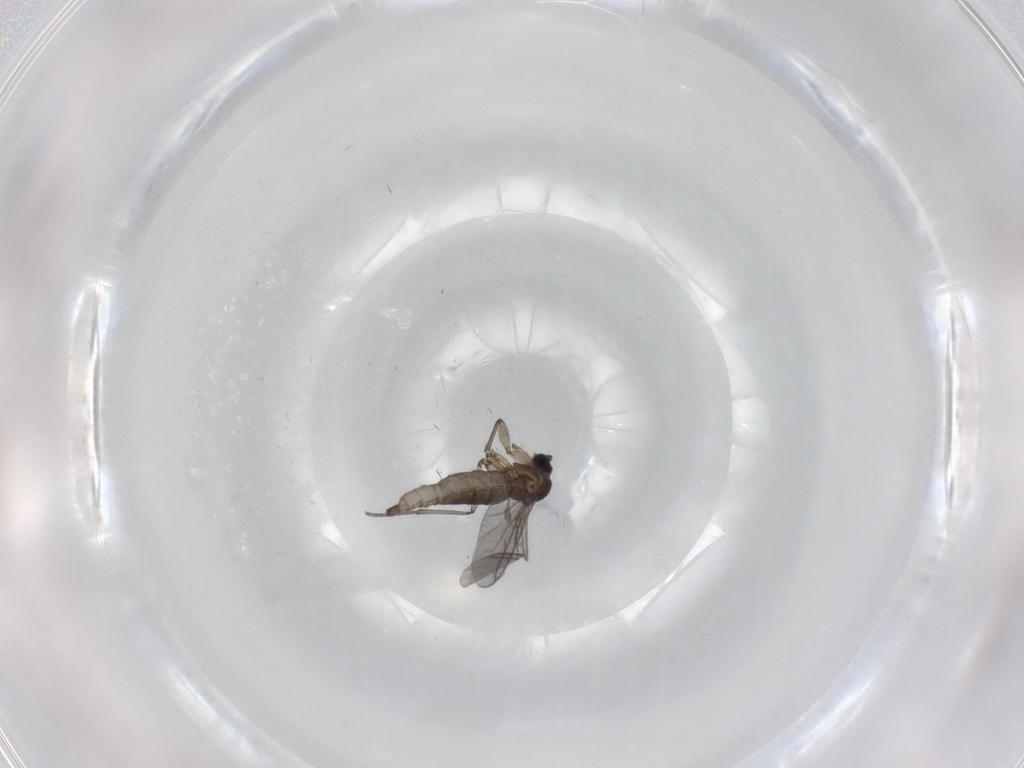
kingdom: Animalia
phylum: Arthropoda
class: Insecta
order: Diptera
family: Sciaridae
